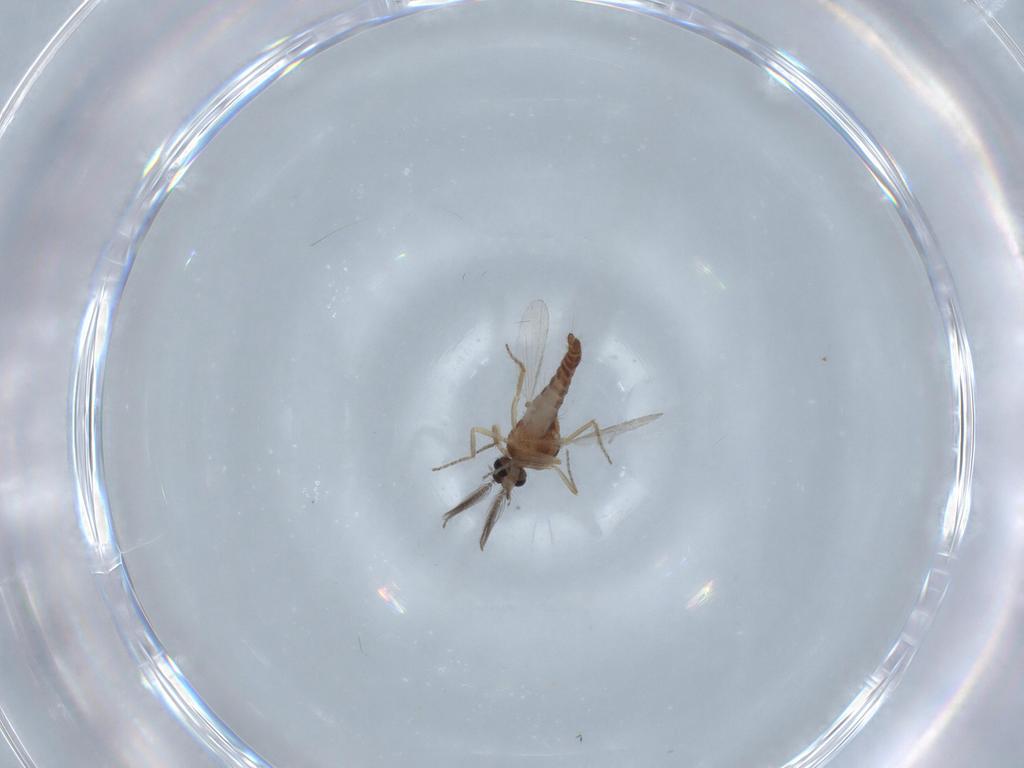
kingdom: Animalia
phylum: Arthropoda
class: Insecta
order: Diptera
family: Ceratopogonidae
